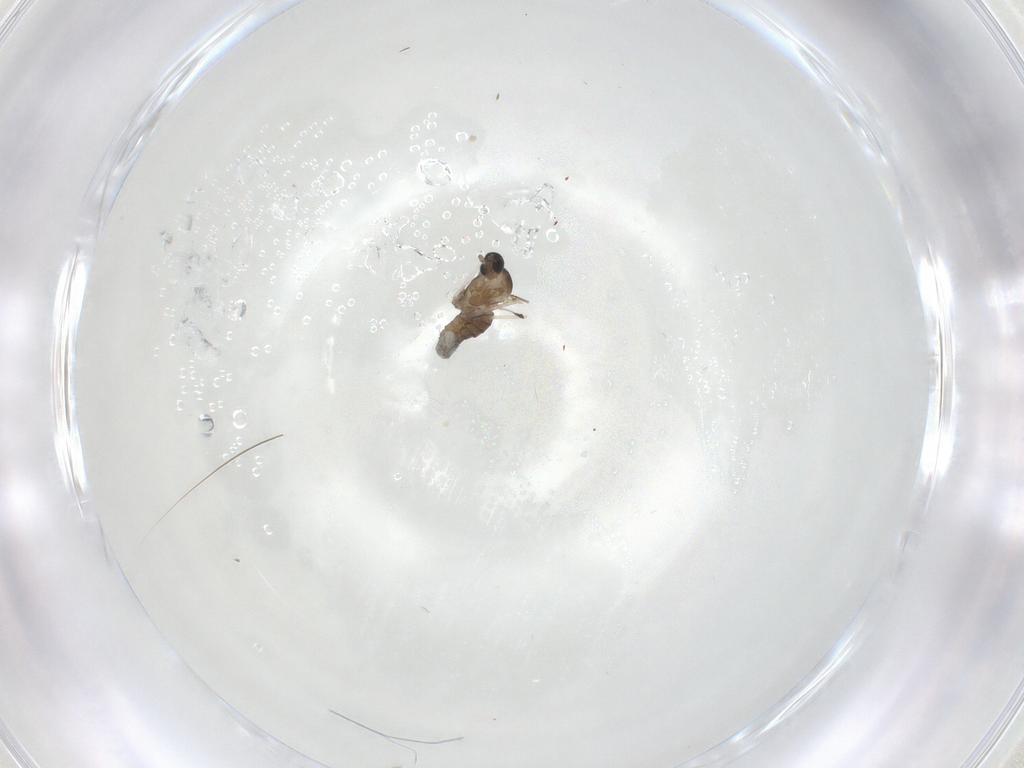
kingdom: Animalia
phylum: Arthropoda
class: Insecta
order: Diptera
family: Cecidomyiidae
